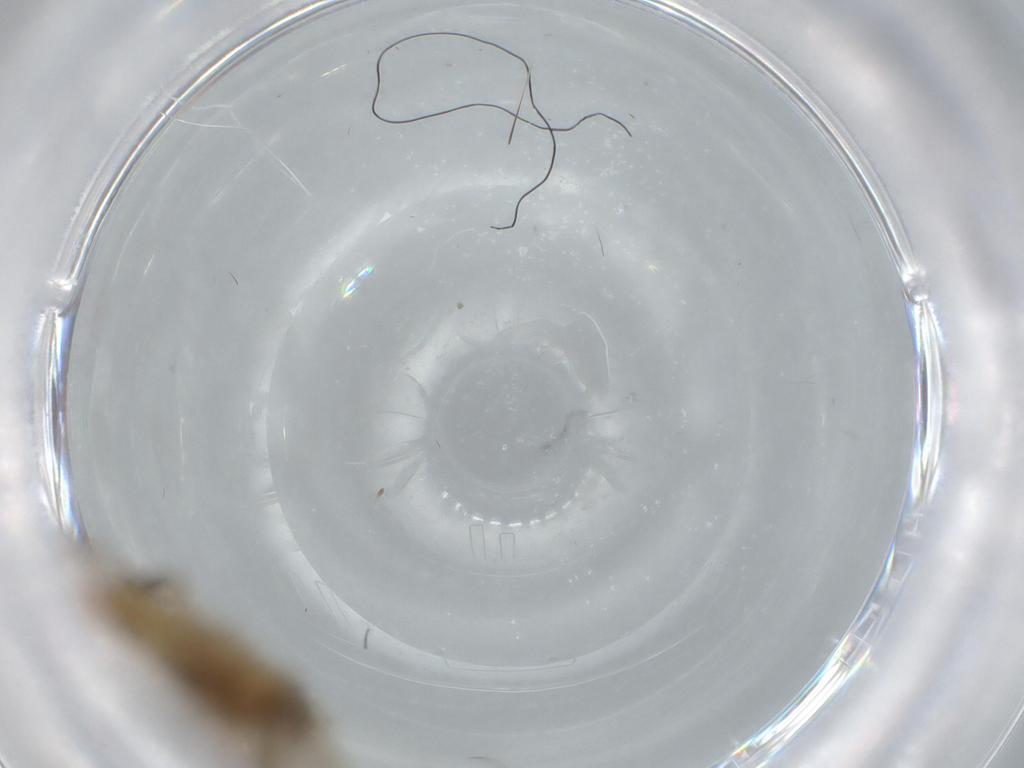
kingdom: Animalia
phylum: Arthropoda
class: Insecta
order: Lepidoptera
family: Tineidae
